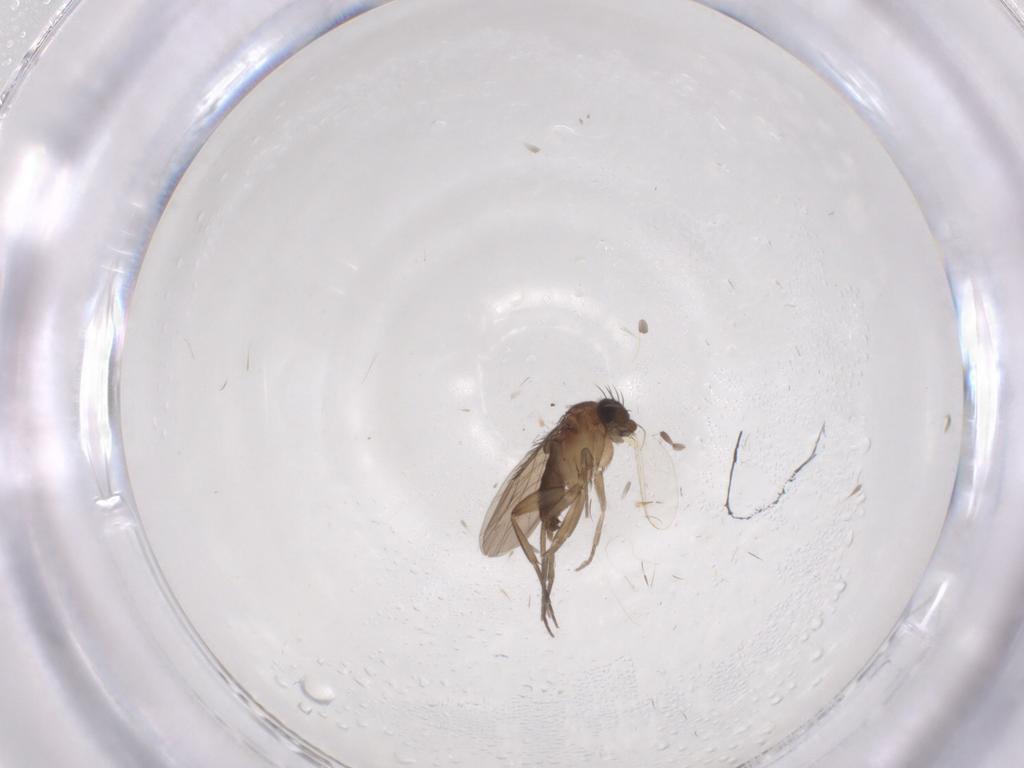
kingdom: Animalia
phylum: Arthropoda
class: Insecta
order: Diptera
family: Phoridae
